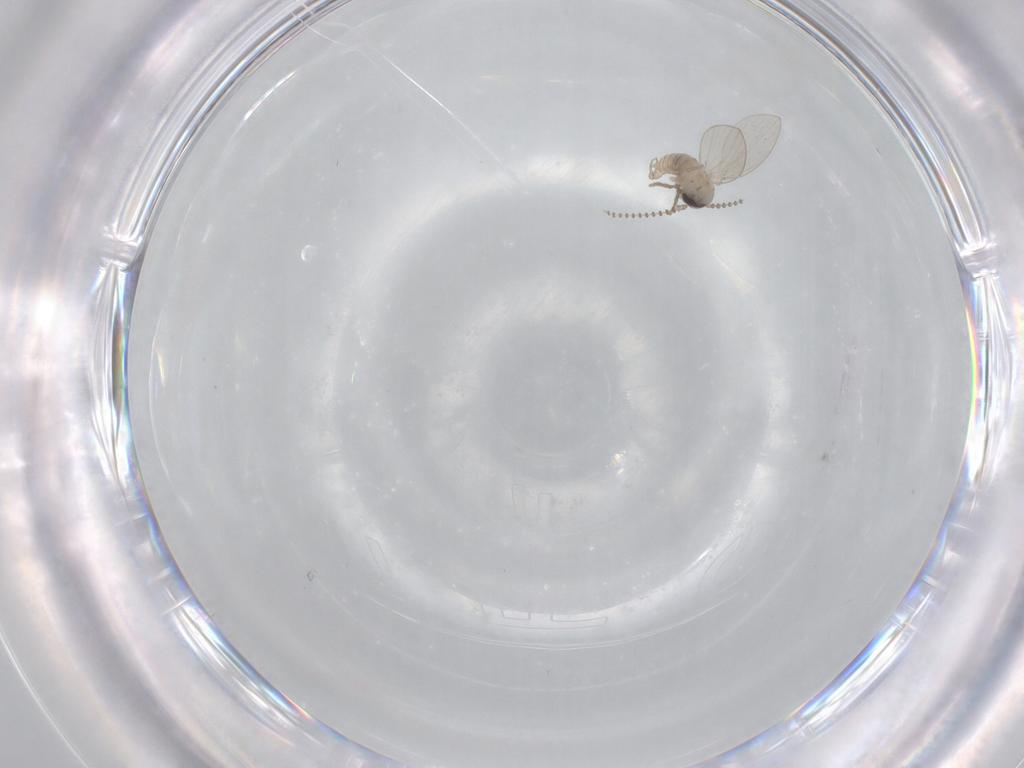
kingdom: Animalia
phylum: Arthropoda
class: Insecta
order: Diptera
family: Psychodidae
